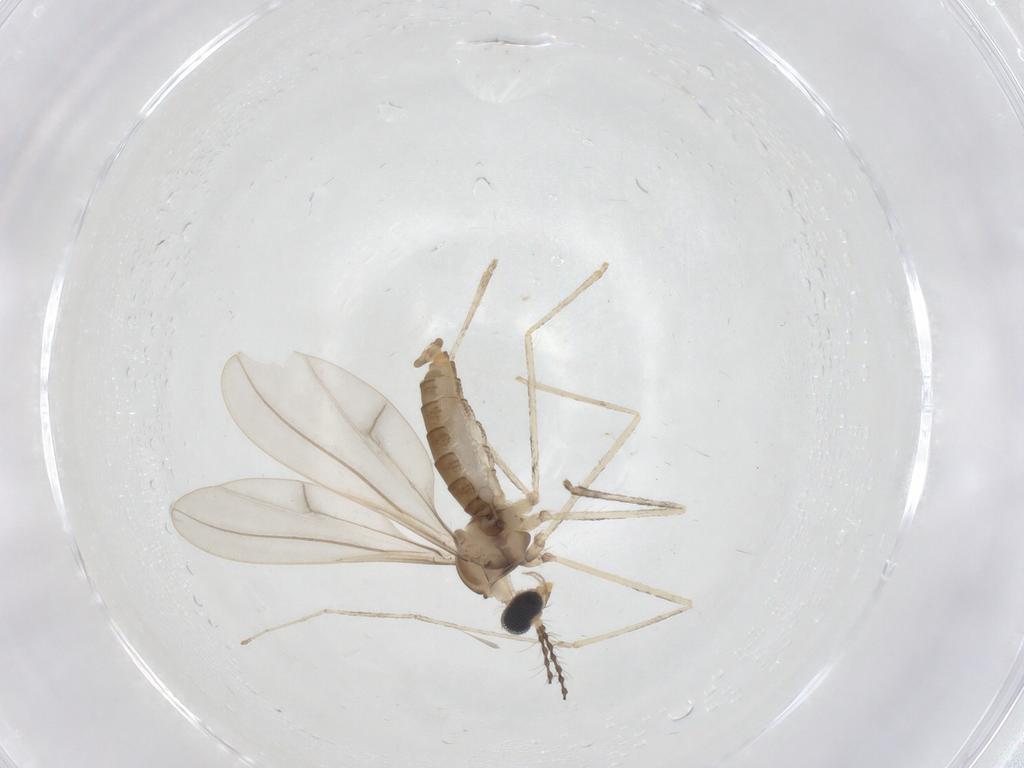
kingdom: Animalia
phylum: Arthropoda
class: Insecta
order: Diptera
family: Cecidomyiidae
